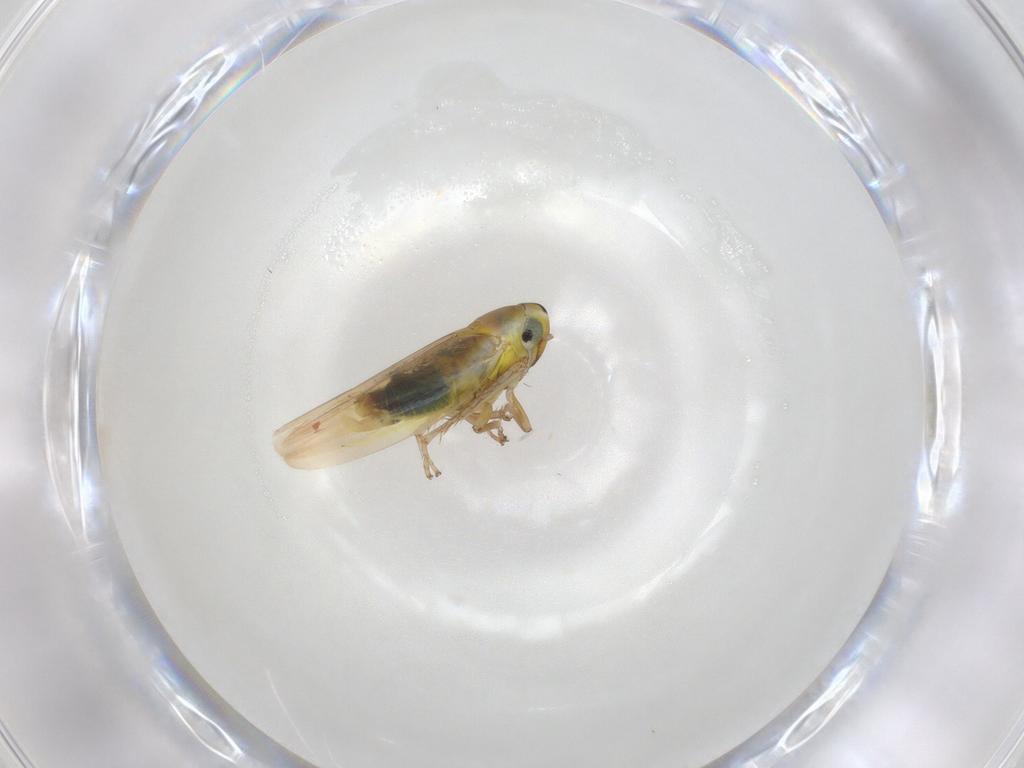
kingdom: Animalia
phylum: Arthropoda
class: Insecta
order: Hemiptera
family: Cicadellidae
